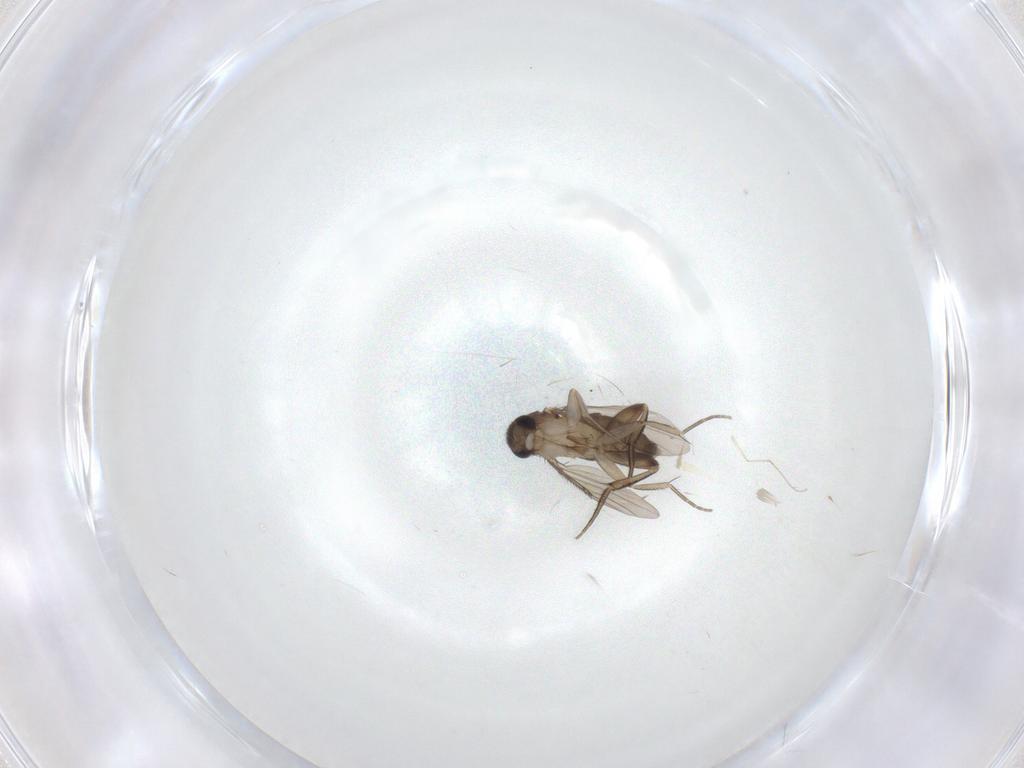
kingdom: Animalia
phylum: Arthropoda
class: Insecta
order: Diptera
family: Phoridae
